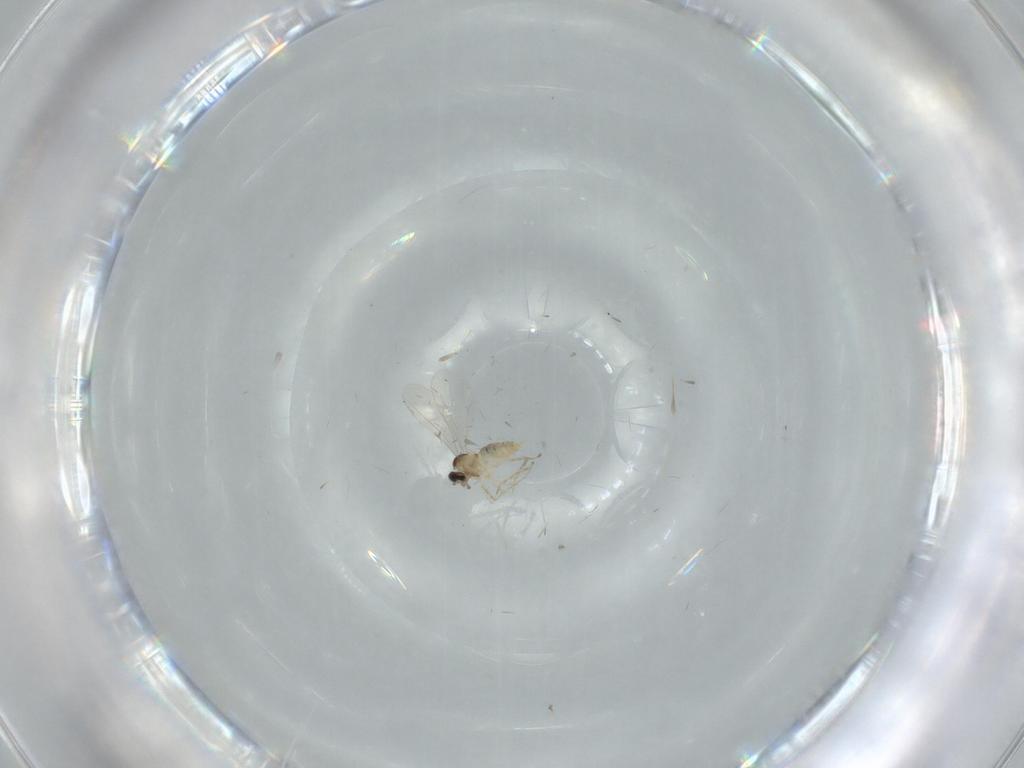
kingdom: Animalia
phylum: Arthropoda
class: Insecta
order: Diptera
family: Cecidomyiidae
